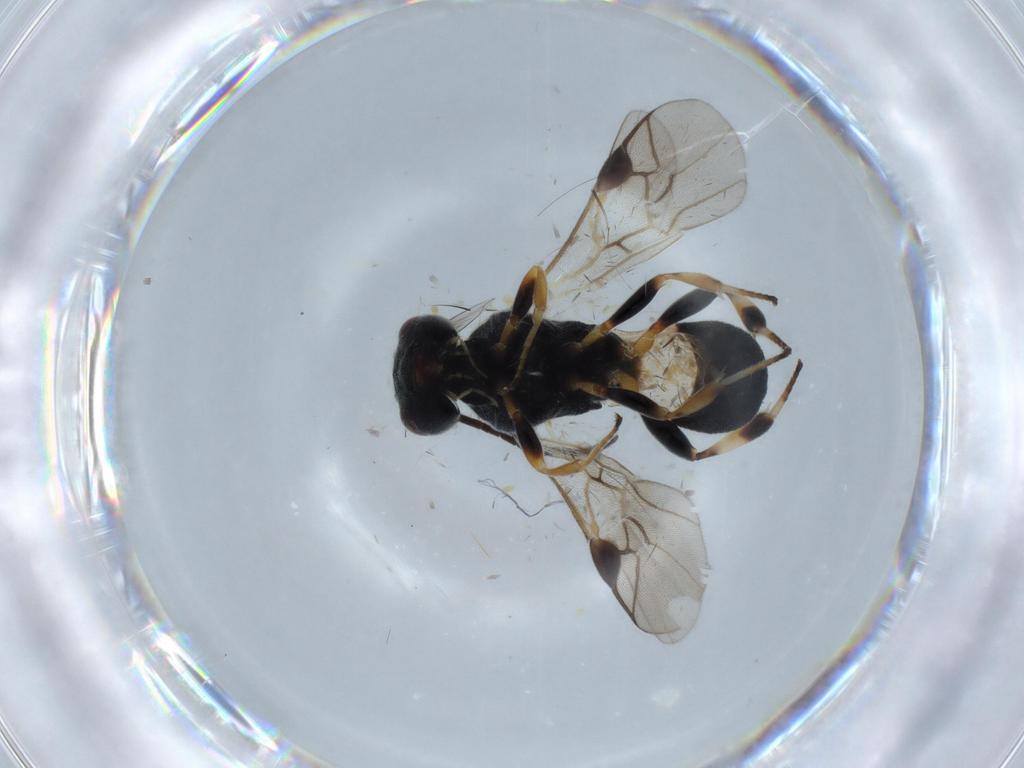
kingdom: Animalia
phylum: Arthropoda
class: Insecta
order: Hymenoptera
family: Braconidae
